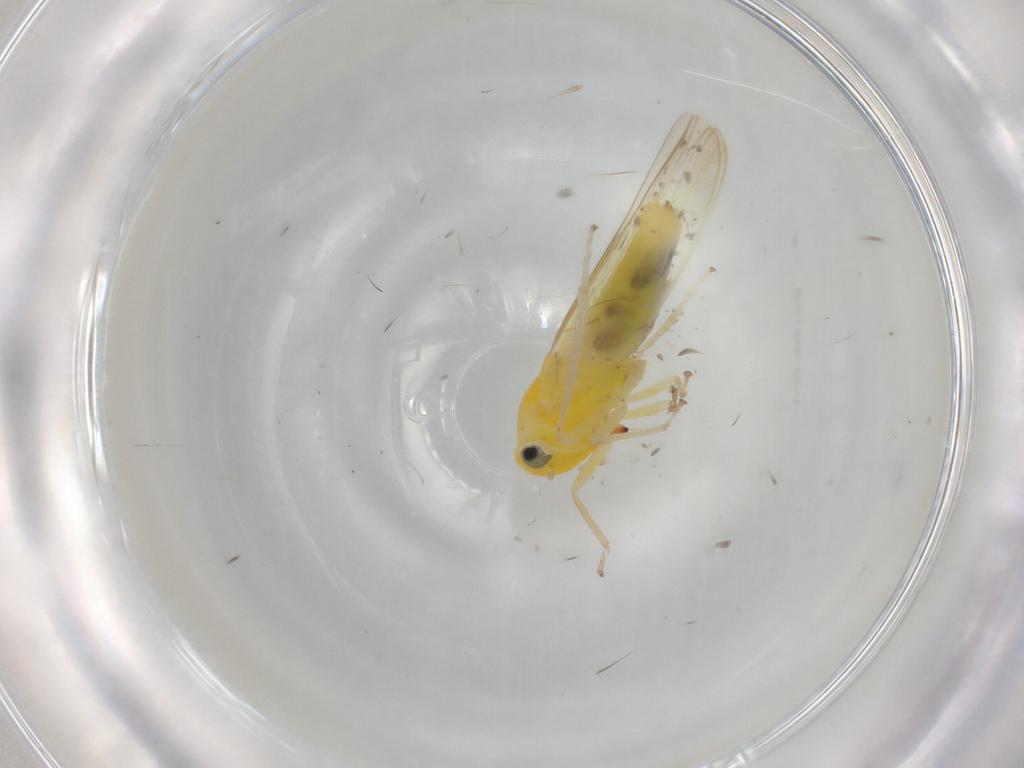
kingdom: Animalia
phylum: Arthropoda
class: Insecta
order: Hemiptera
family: Cicadellidae
